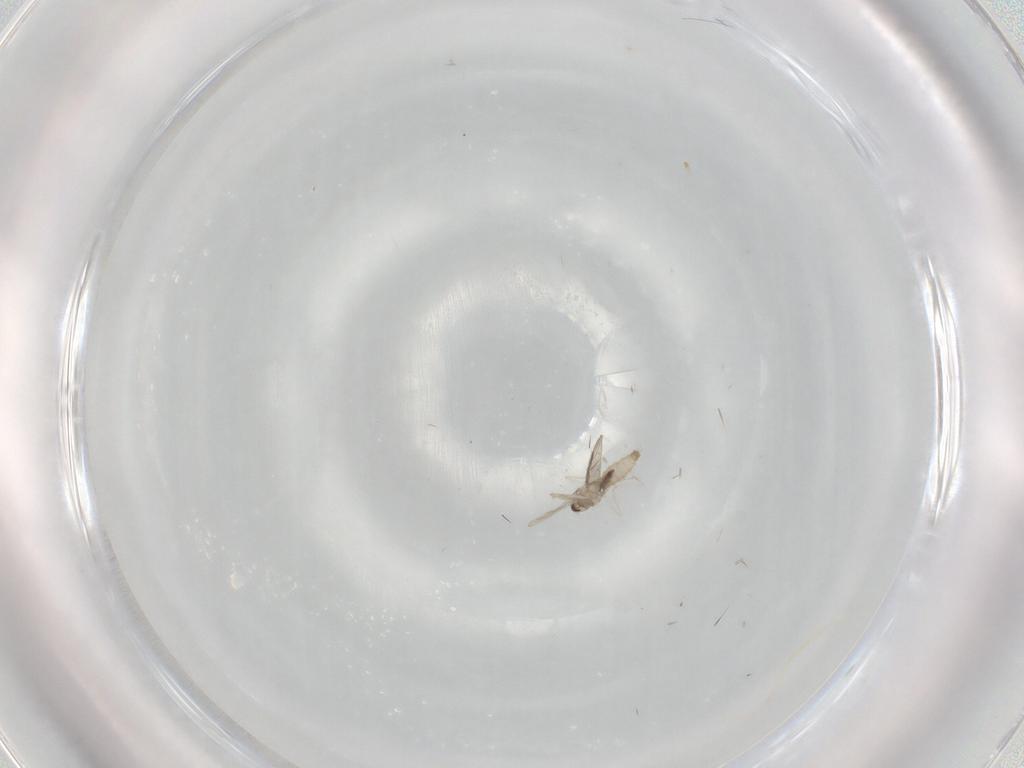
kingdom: Animalia
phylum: Arthropoda
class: Insecta
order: Diptera
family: Cecidomyiidae
